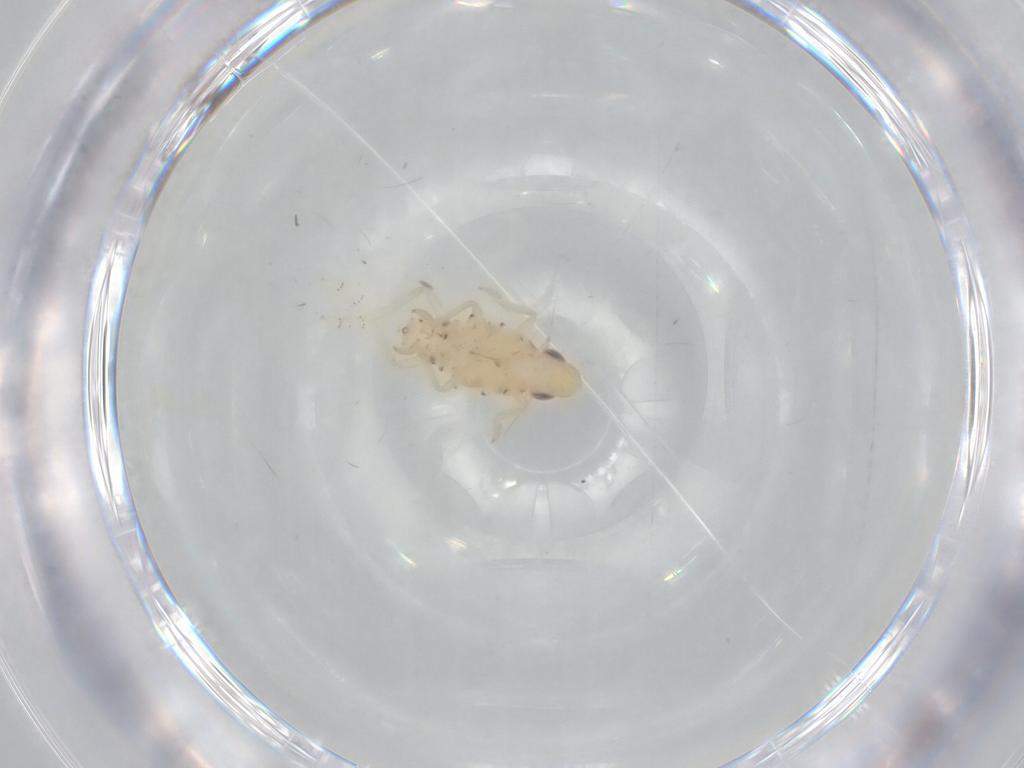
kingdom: Animalia
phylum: Arthropoda
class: Insecta
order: Hemiptera
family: Tropiduchidae
